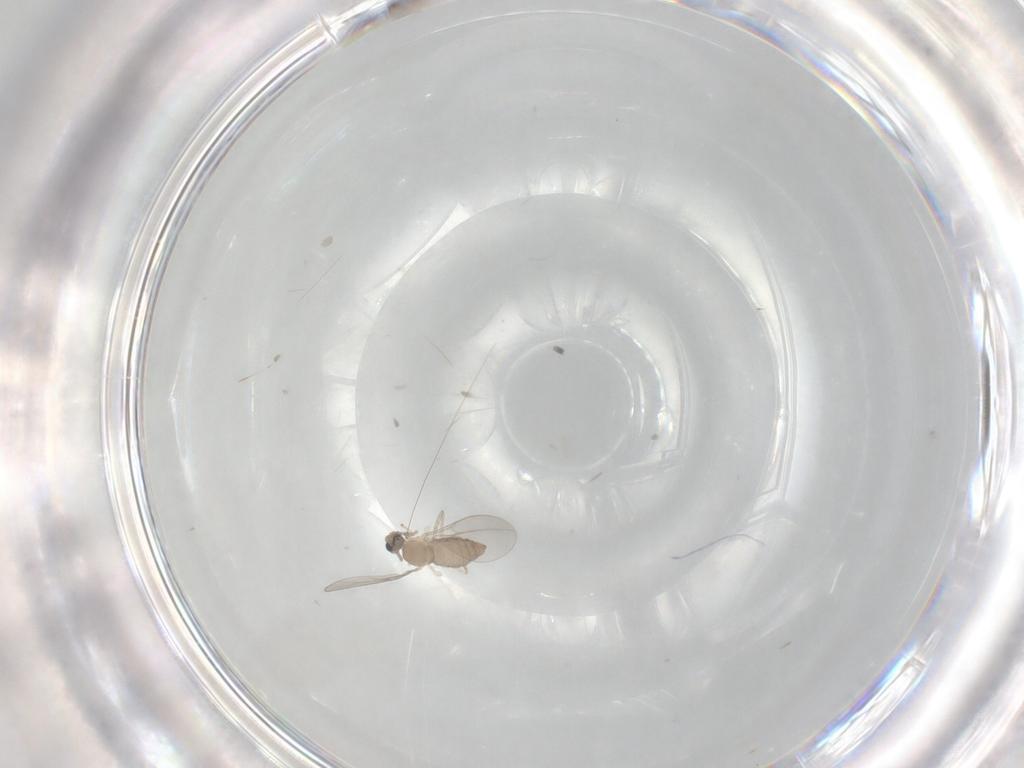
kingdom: Animalia
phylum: Arthropoda
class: Insecta
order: Diptera
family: Cecidomyiidae
